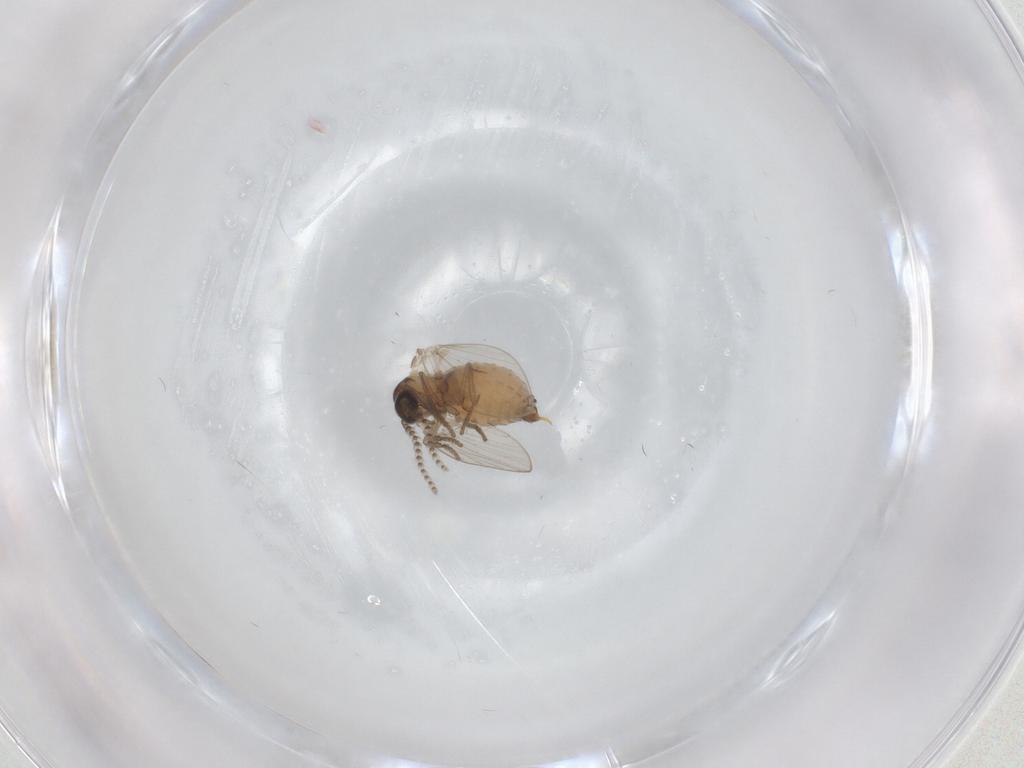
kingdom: Animalia
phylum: Arthropoda
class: Insecta
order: Diptera
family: Psychodidae
